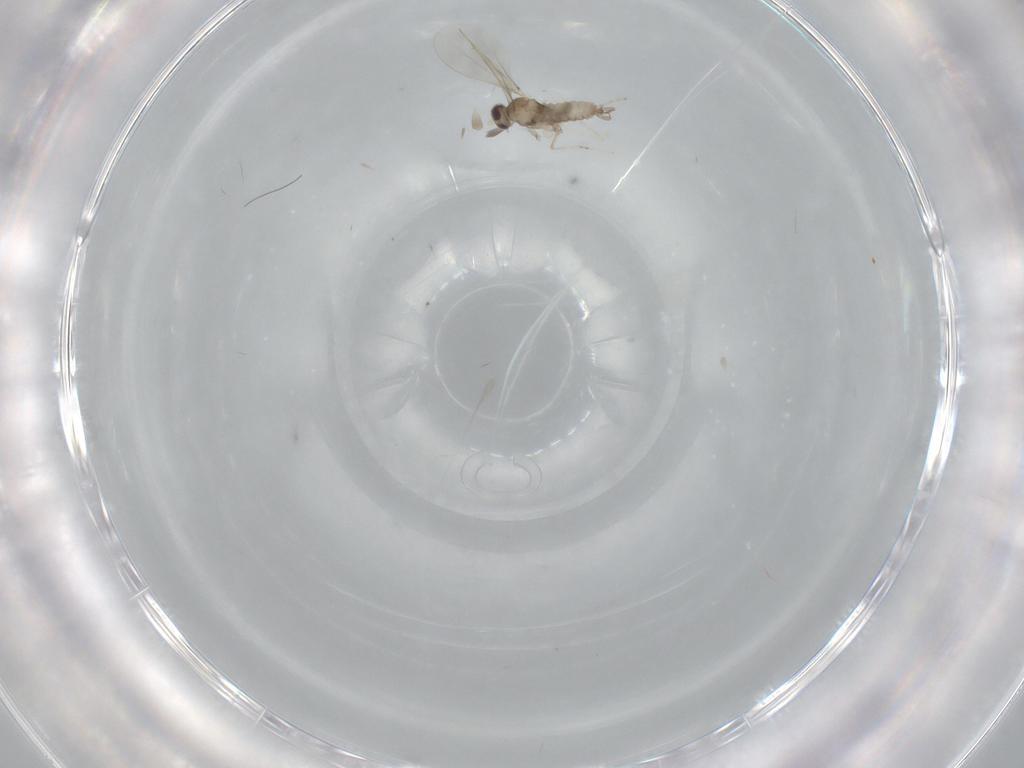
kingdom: Animalia
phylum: Arthropoda
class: Insecta
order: Diptera
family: Cecidomyiidae
